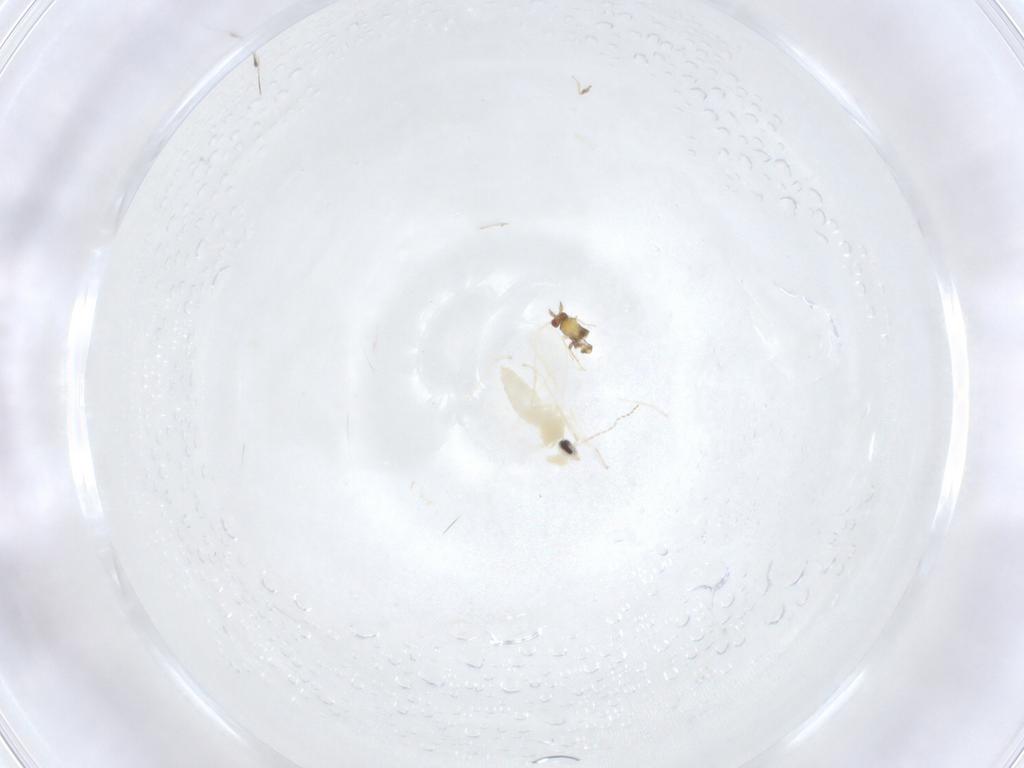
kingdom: Animalia
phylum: Arthropoda
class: Insecta
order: Diptera
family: Cecidomyiidae
